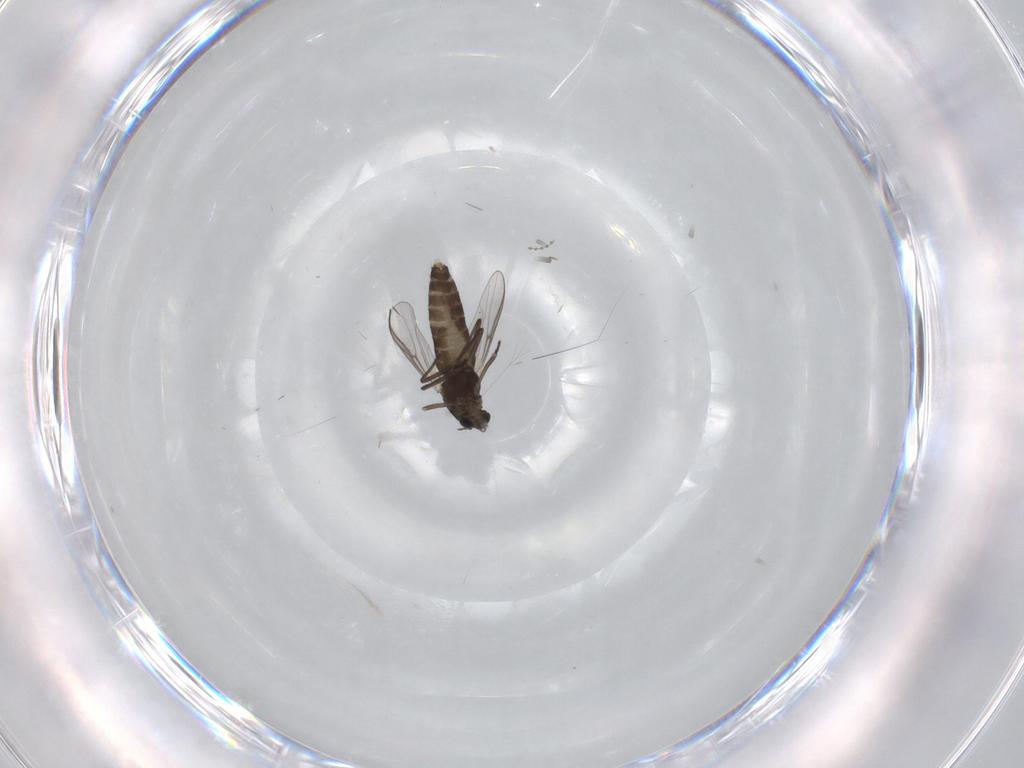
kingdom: Animalia
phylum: Arthropoda
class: Insecta
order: Diptera
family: Chironomidae
